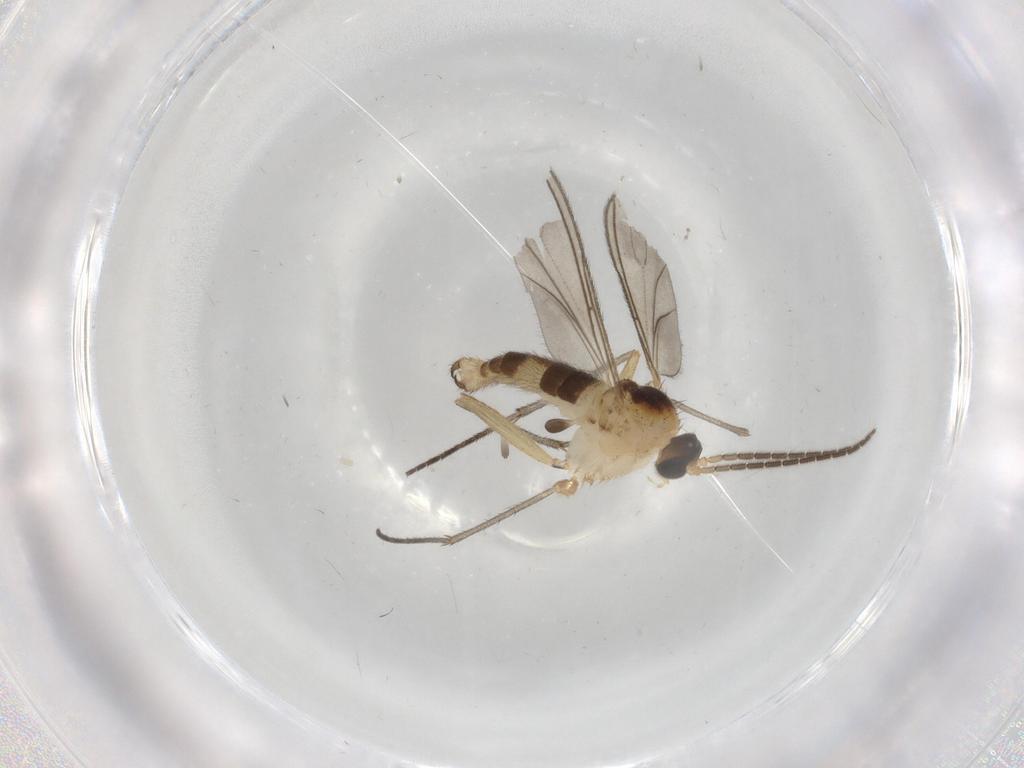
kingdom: Animalia
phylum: Arthropoda
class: Insecta
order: Diptera
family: Sciaridae
